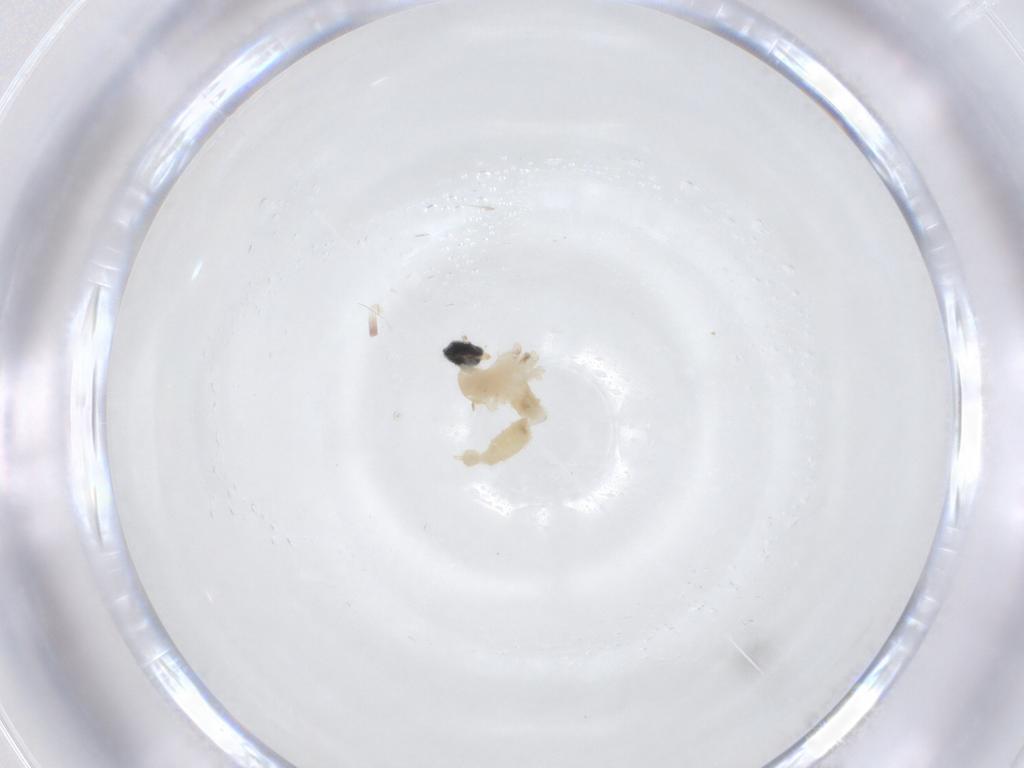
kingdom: Animalia
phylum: Arthropoda
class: Insecta
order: Diptera
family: Cecidomyiidae
